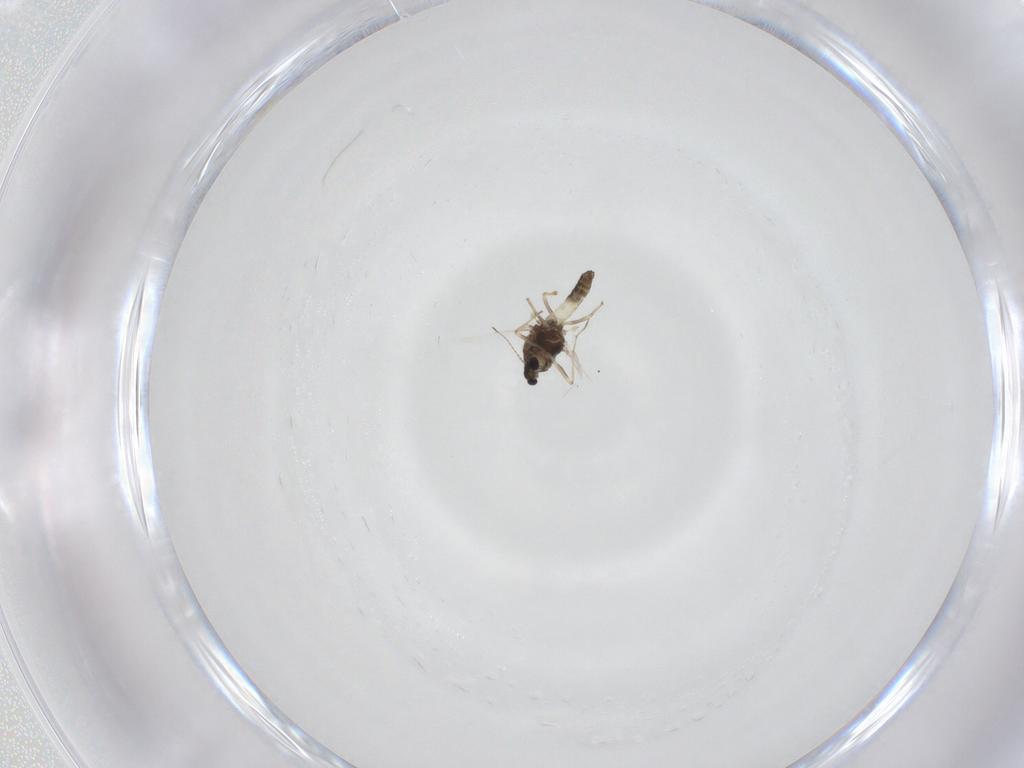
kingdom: Animalia
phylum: Arthropoda
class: Insecta
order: Diptera
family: Chironomidae
